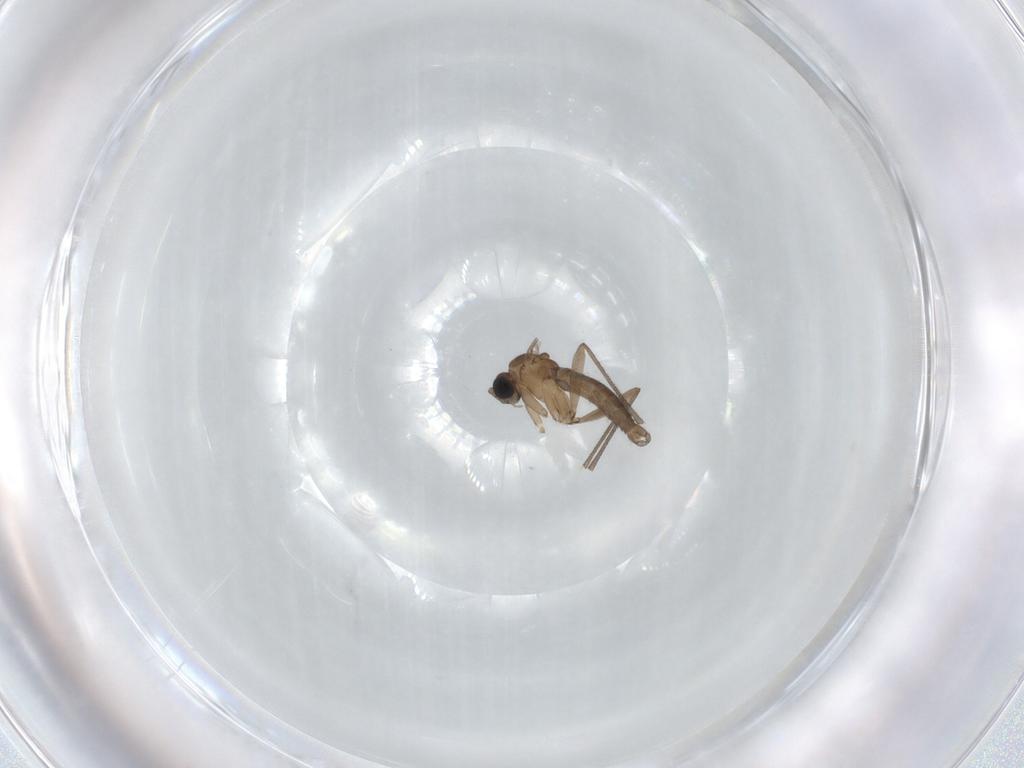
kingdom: Animalia
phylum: Arthropoda
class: Insecta
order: Diptera
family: Sciaridae
